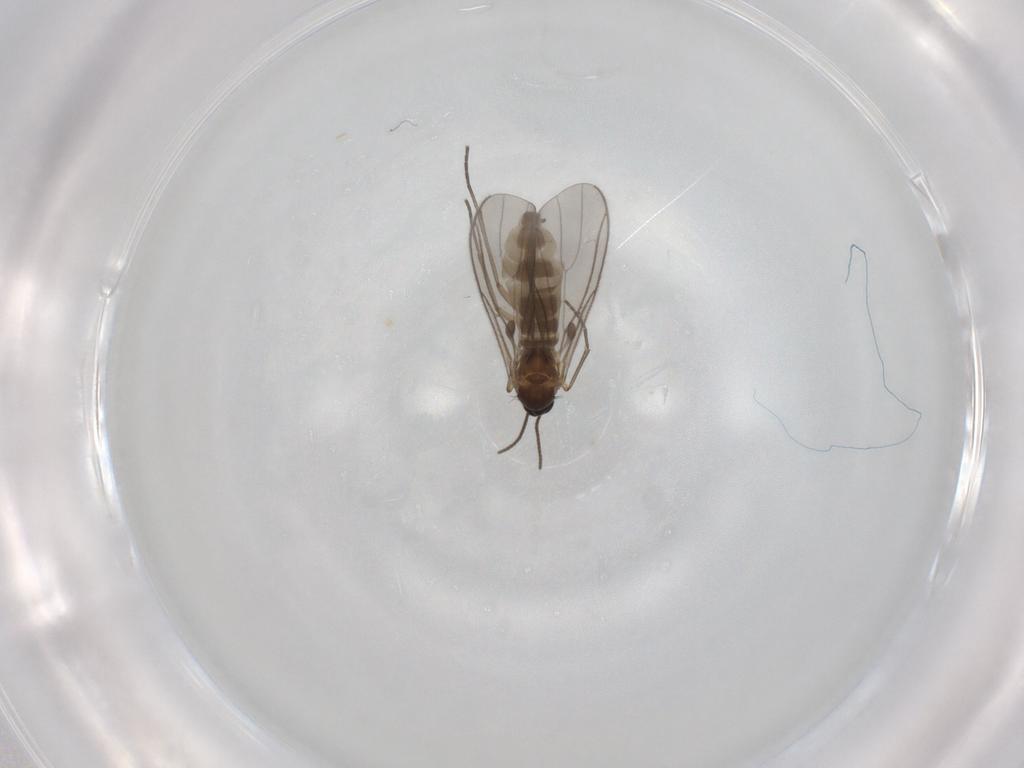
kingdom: Animalia
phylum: Arthropoda
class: Insecta
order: Diptera
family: Sciaridae
